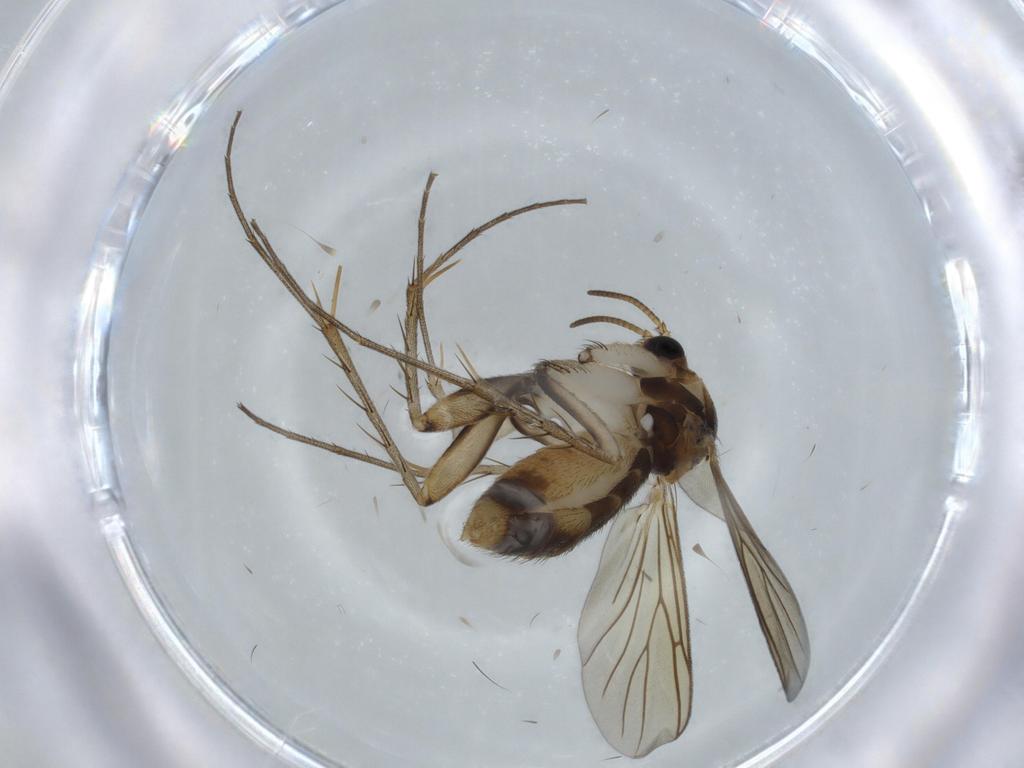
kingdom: Animalia
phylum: Arthropoda
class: Insecta
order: Diptera
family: Mycetophilidae
